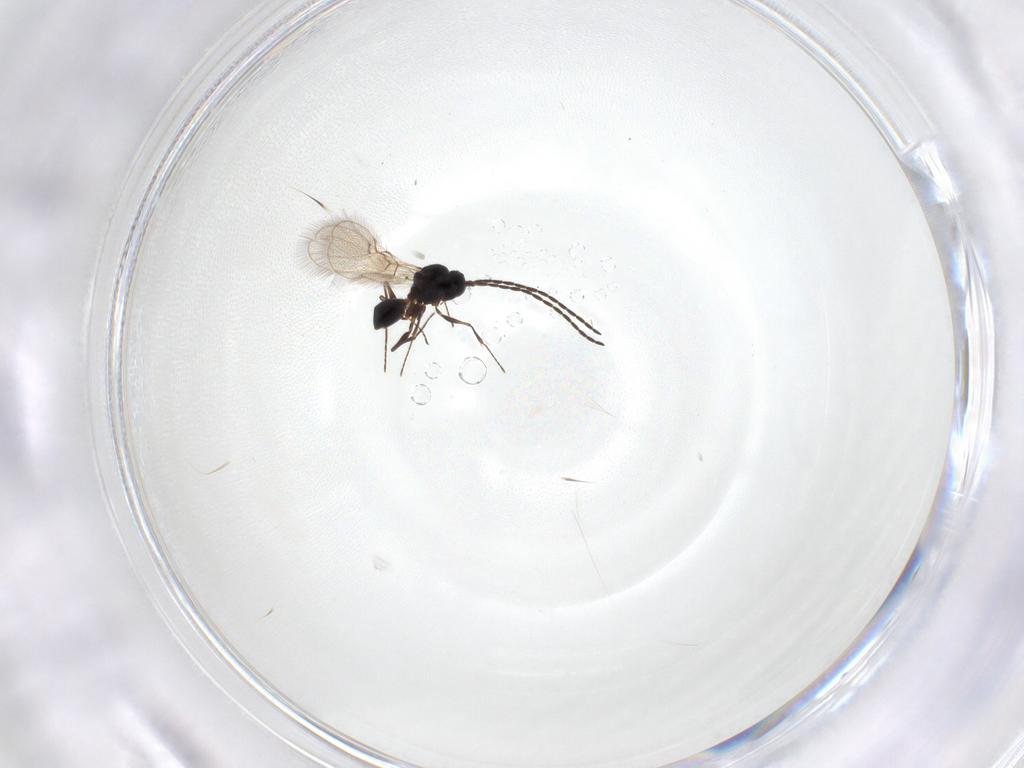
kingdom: Animalia
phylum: Arthropoda
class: Insecta
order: Hymenoptera
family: Figitidae
